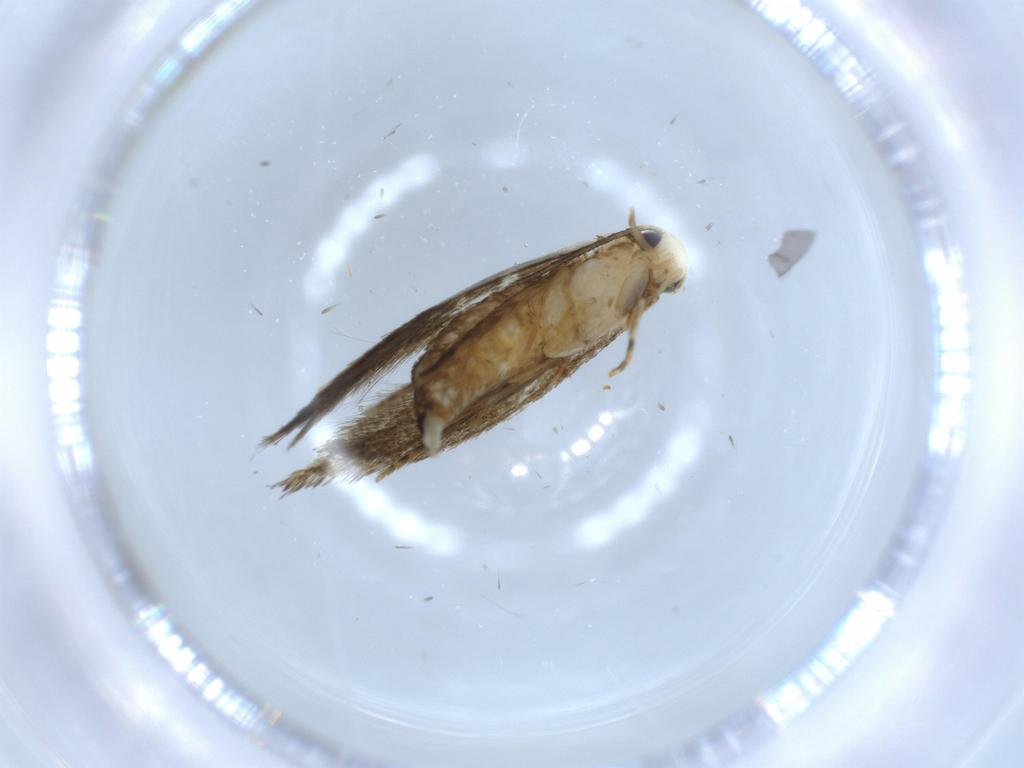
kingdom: Animalia
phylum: Arthropoda
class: Insecta
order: Lepidoptera
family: Tineidae
